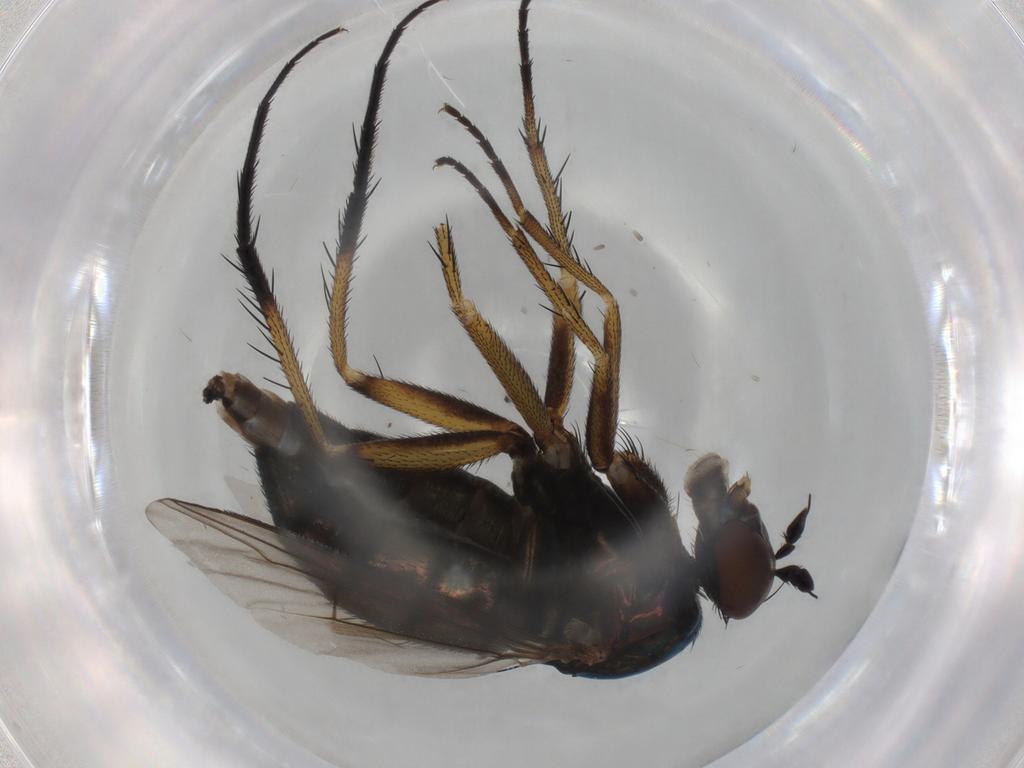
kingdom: Animalia
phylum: Arthropoda
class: Insecta
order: Diptera
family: Dolichopodidae
